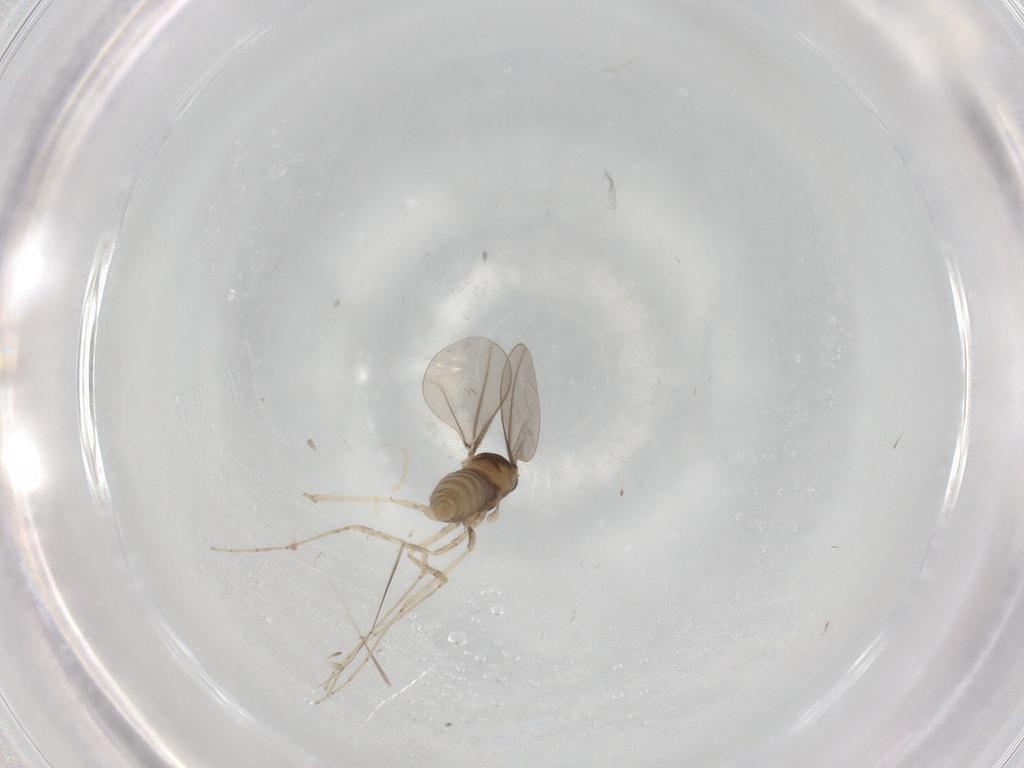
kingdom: Animalia
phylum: Arthropoda
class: Insecta
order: Diptera
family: Cecidomyiidae
